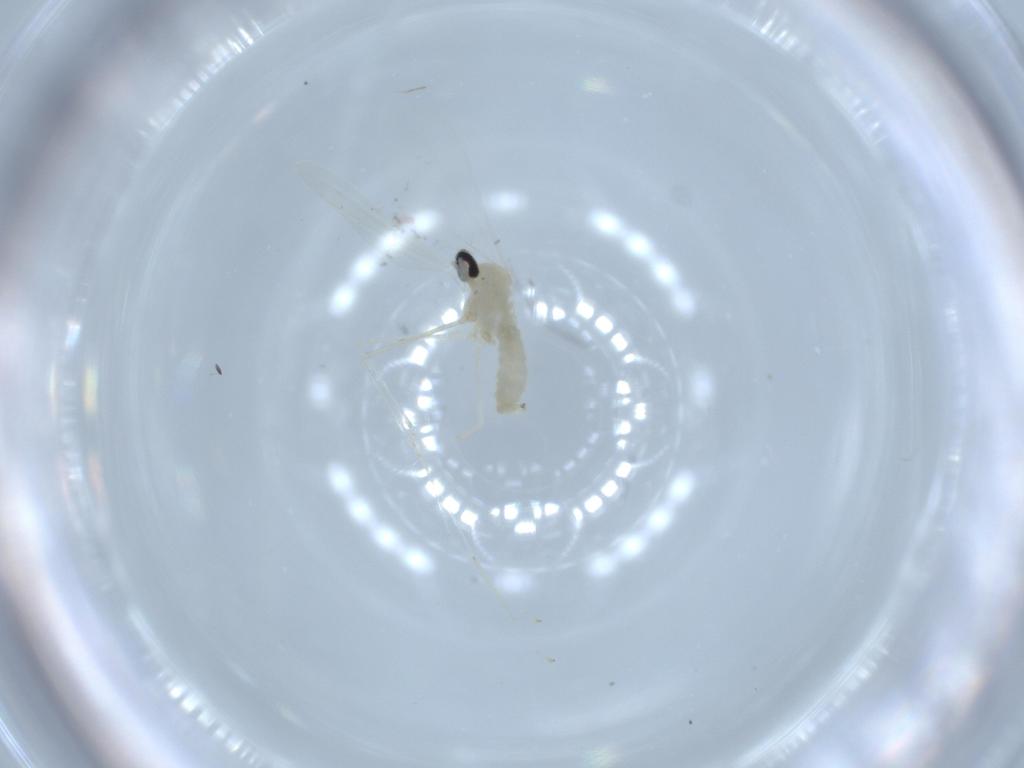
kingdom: Animalia
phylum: Arthropoda
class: Insecta
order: Diptera
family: Cecidomyiidae
